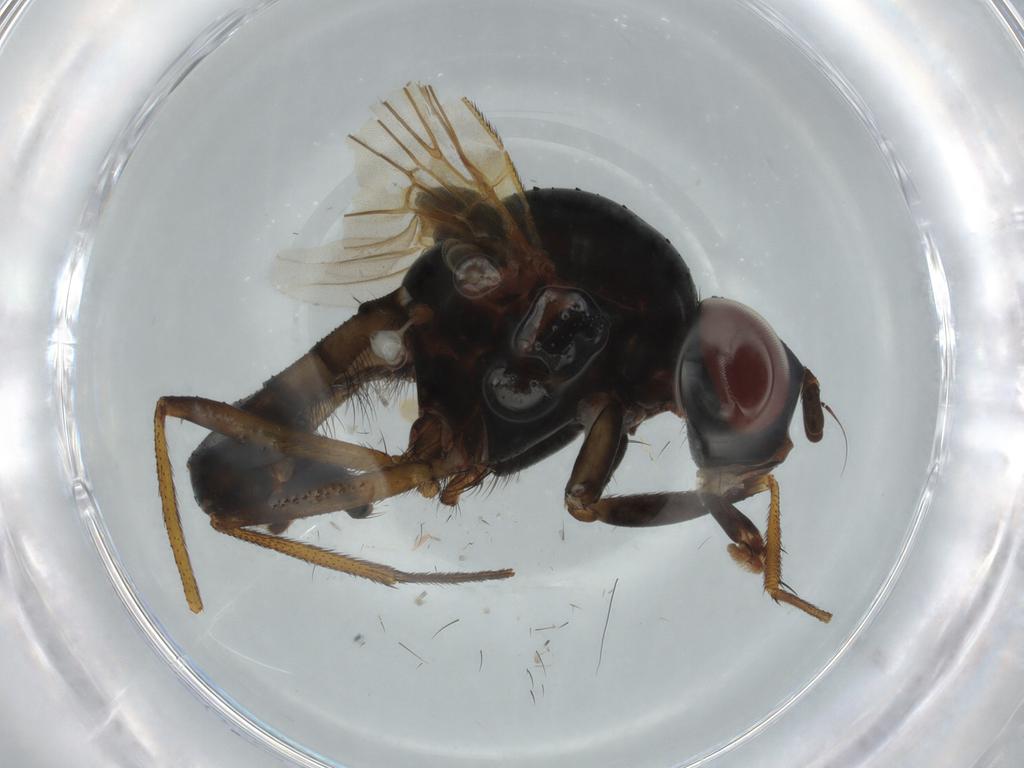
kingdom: Animalia
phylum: Arthropoda
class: Insecta
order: Diptera
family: Anthomyiidae
